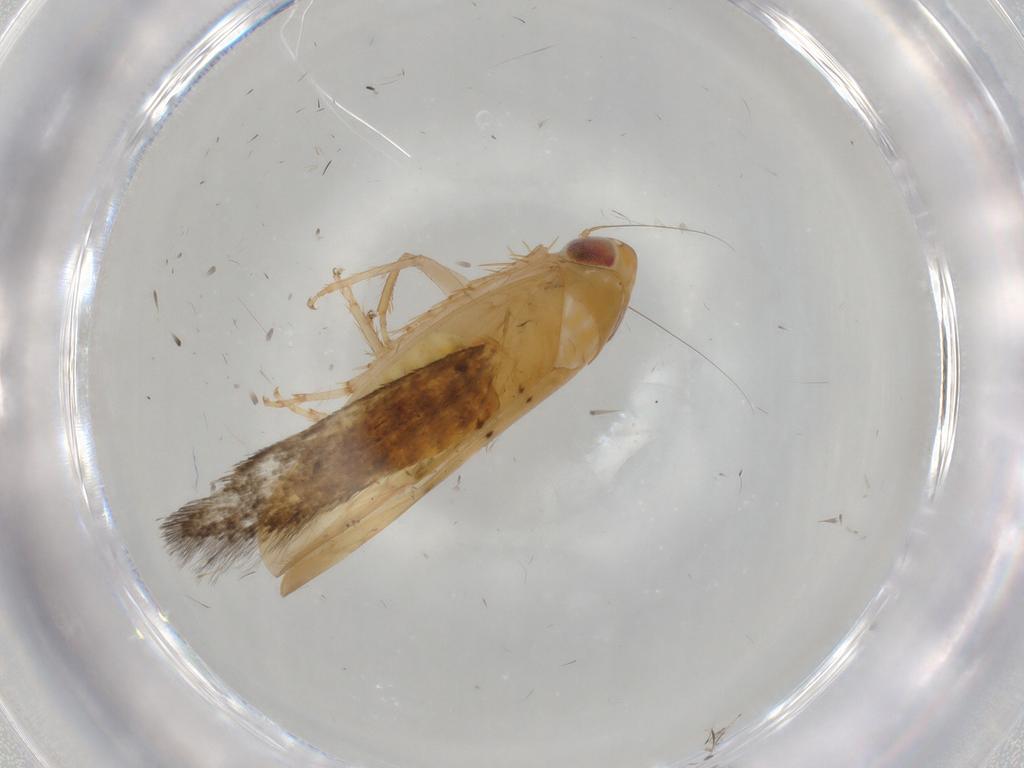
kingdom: Animalia
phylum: Arthropoda
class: Insecta
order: Hemiptera
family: Cicadellidae
